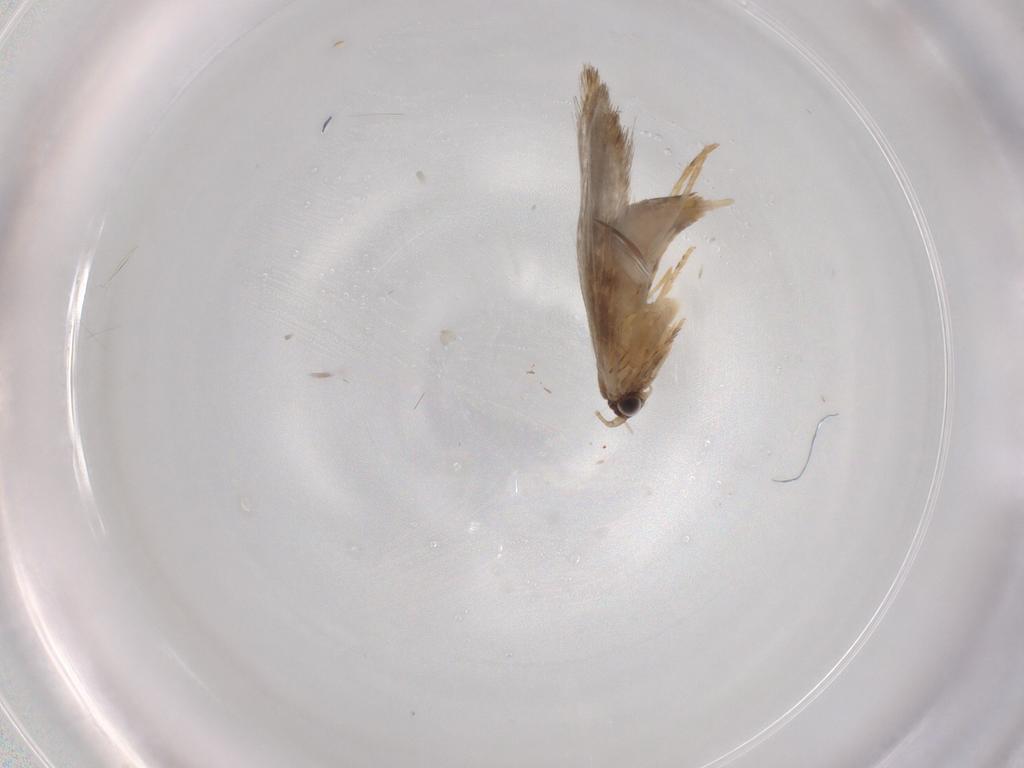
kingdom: Animalia
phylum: Arthropoda
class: Insecta
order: Lepidoptera
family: Tineidae
